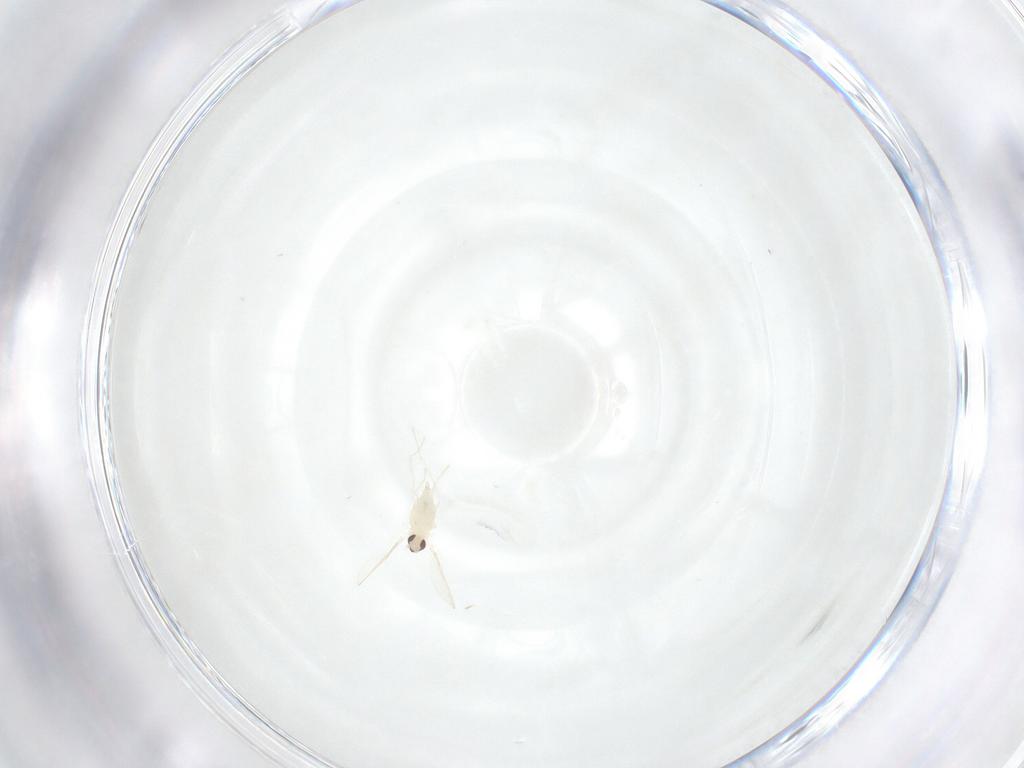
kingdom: Animalia
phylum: Arthropoda
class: Insecta
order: Diptera
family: Cecidomyiidae
